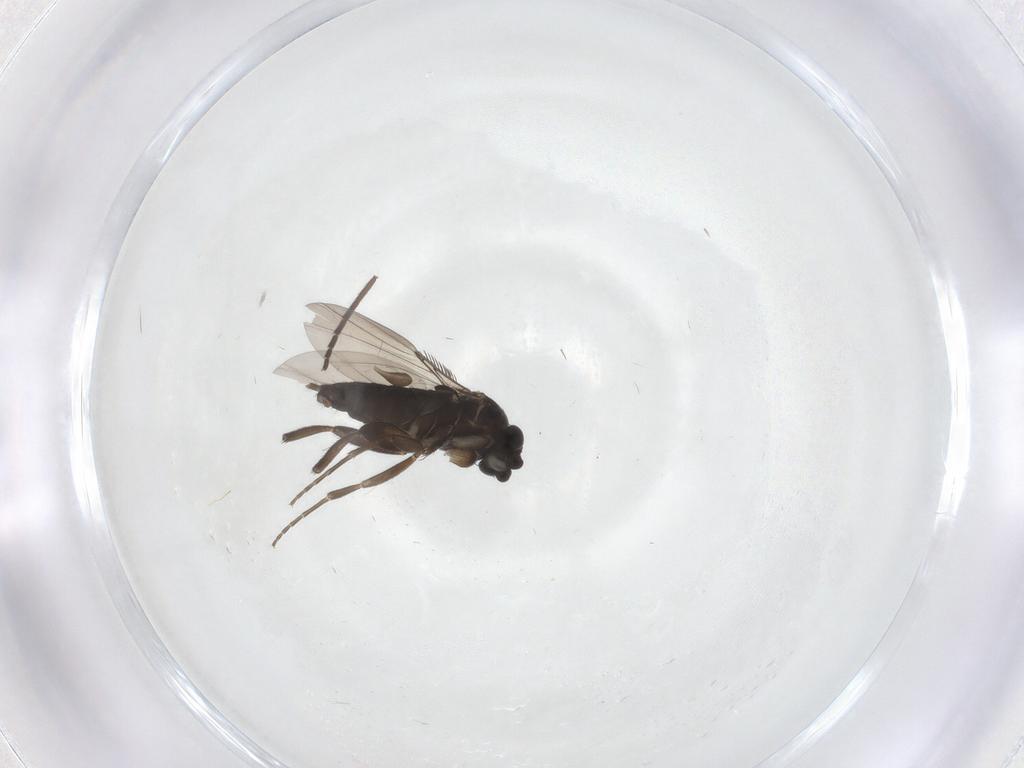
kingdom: Animalia
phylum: Arthropoda
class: Insecta
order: Diptera
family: Phoridae
